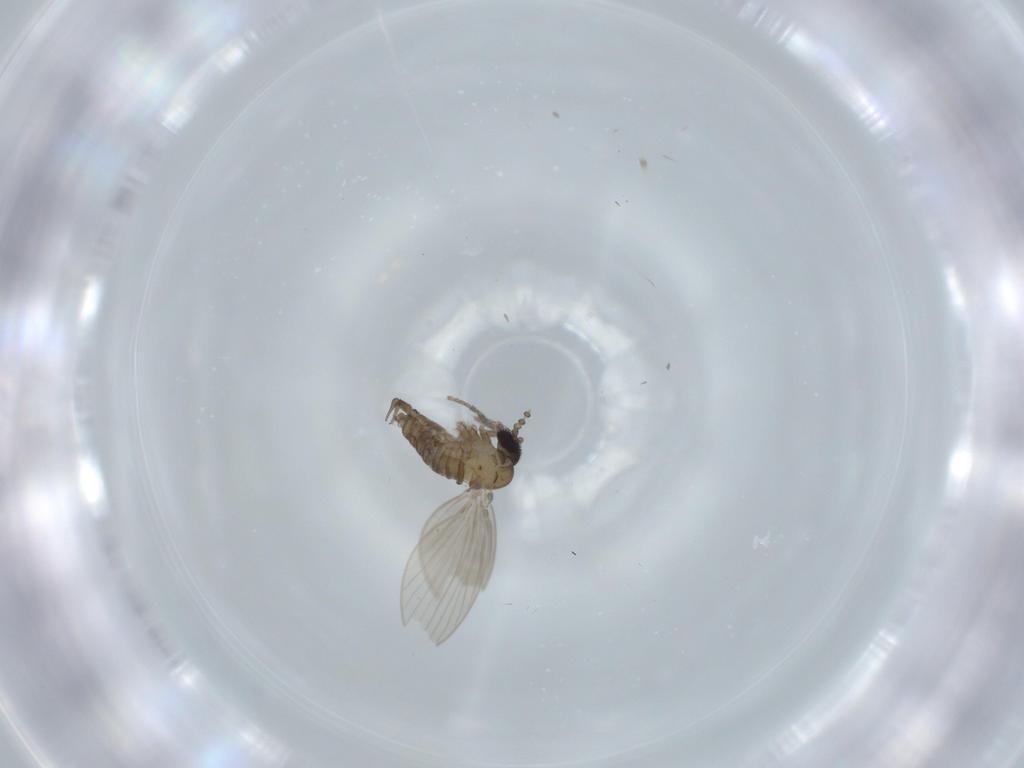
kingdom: Animalia
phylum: Arthropoda
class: Insecta
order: Diptera
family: Psychodidae
